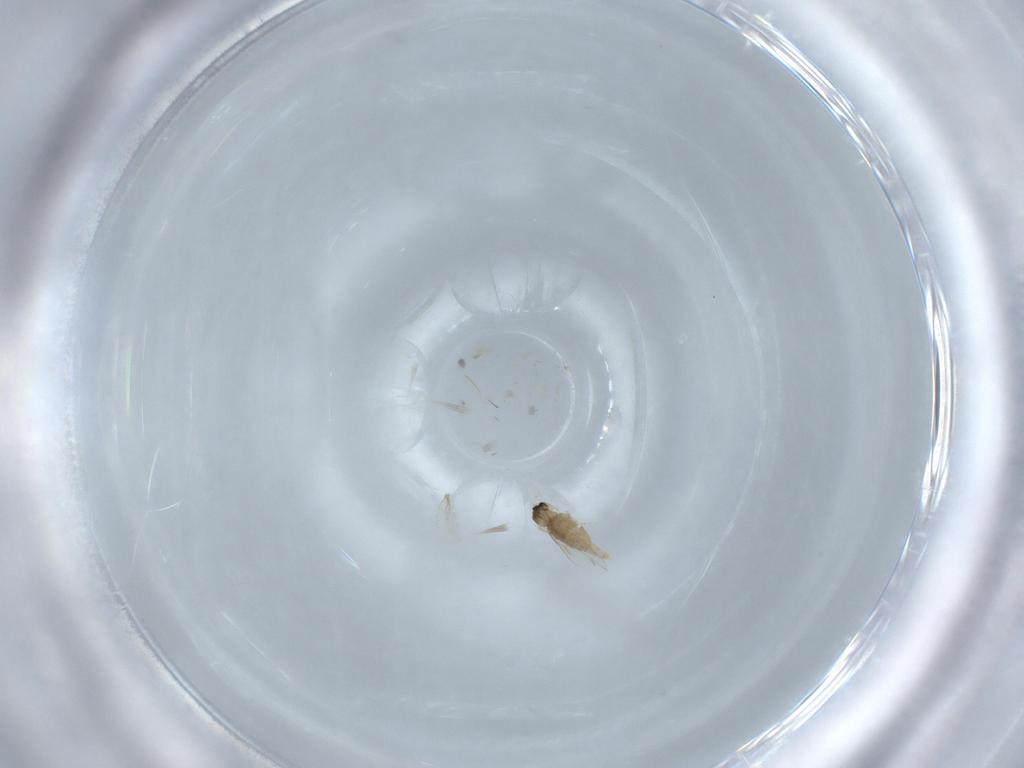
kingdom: Animalia
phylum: Arthropoda
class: Insecta
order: Diptera
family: Cecidomyiidae
